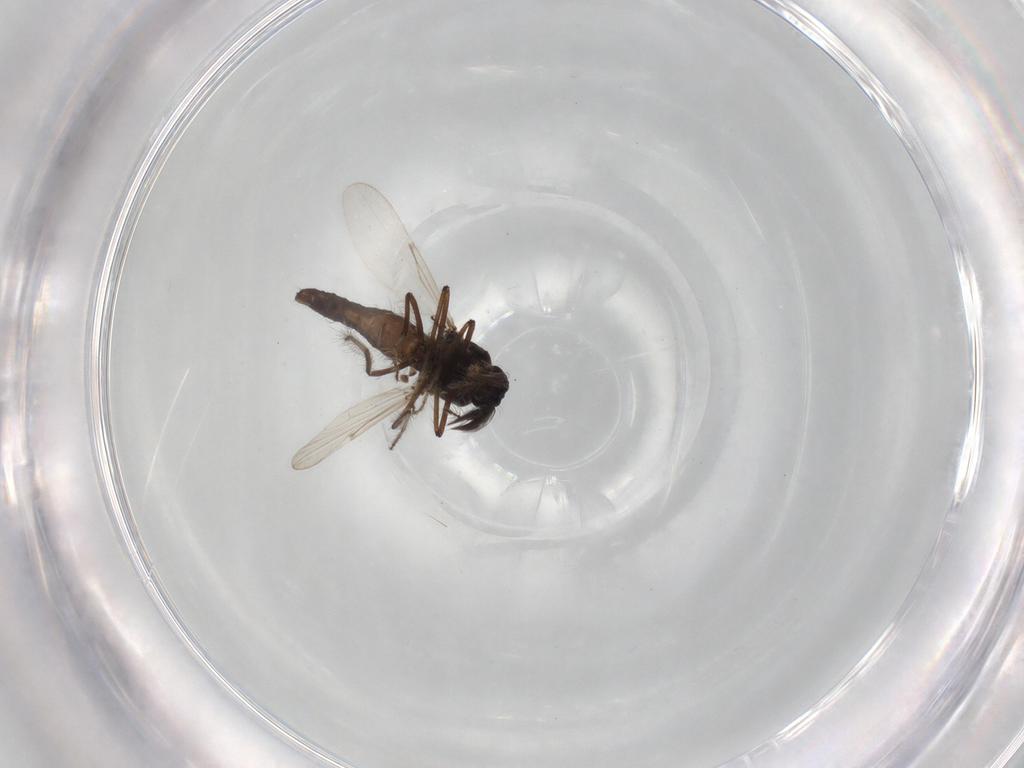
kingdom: Animalia
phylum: Arthropoda
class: Insecta
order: Diptera
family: Chironomidae
